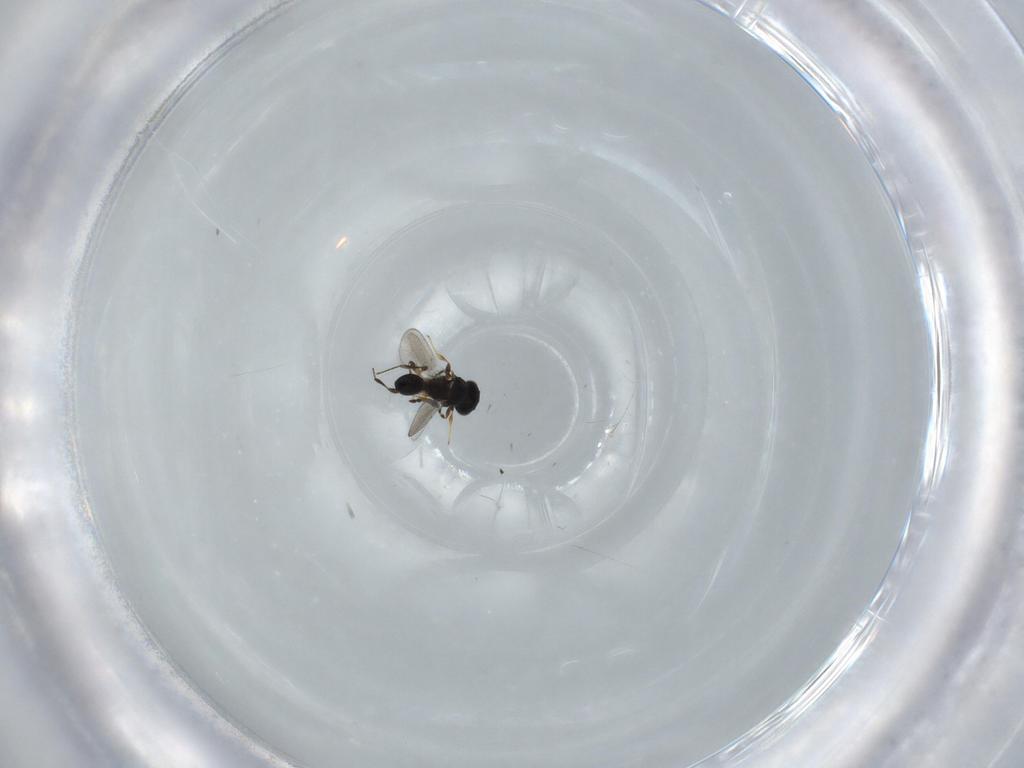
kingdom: Animalia
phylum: Arthropoda
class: Insecta
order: Hymenoptera
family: Platygastridae
